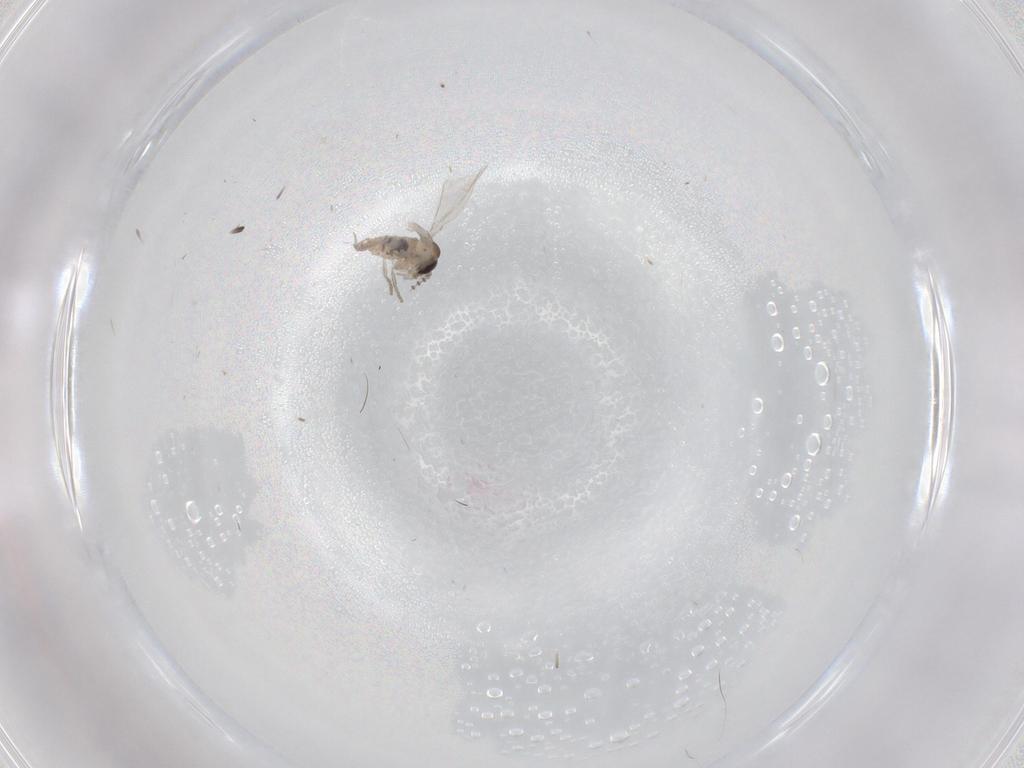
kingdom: Animalia
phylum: Arthropoda
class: Insecta
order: Diptera
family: Psychodidae
